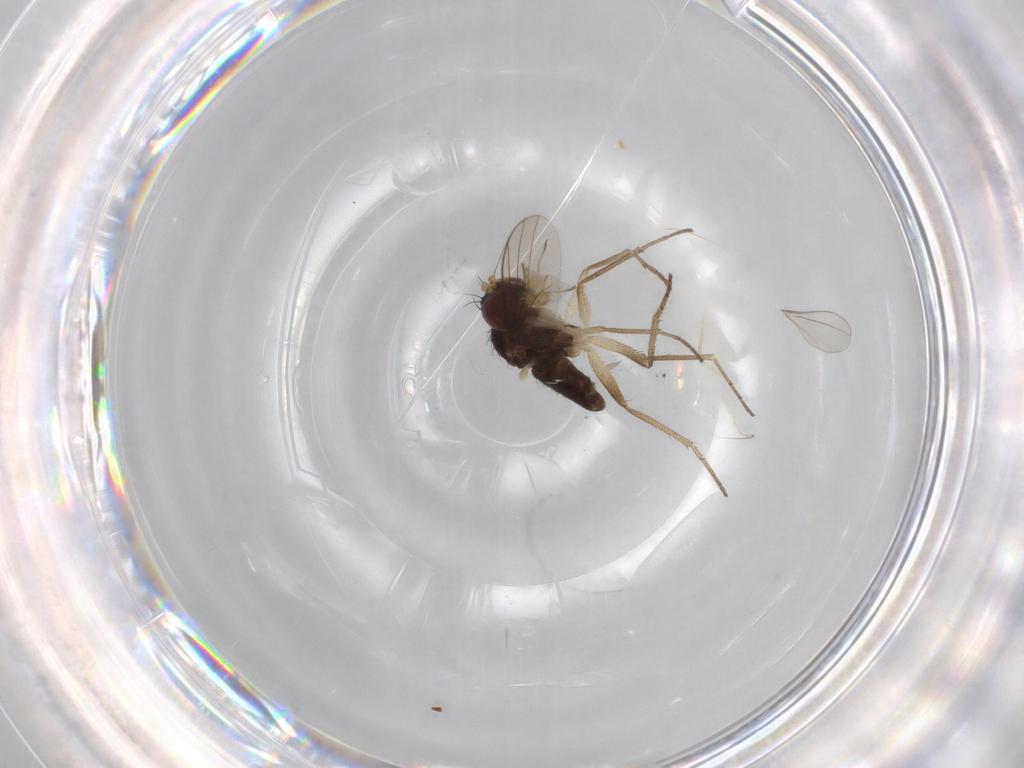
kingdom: Animalia
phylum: Arthropoda
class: Insecta
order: Diptera
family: Dolichopodidae
